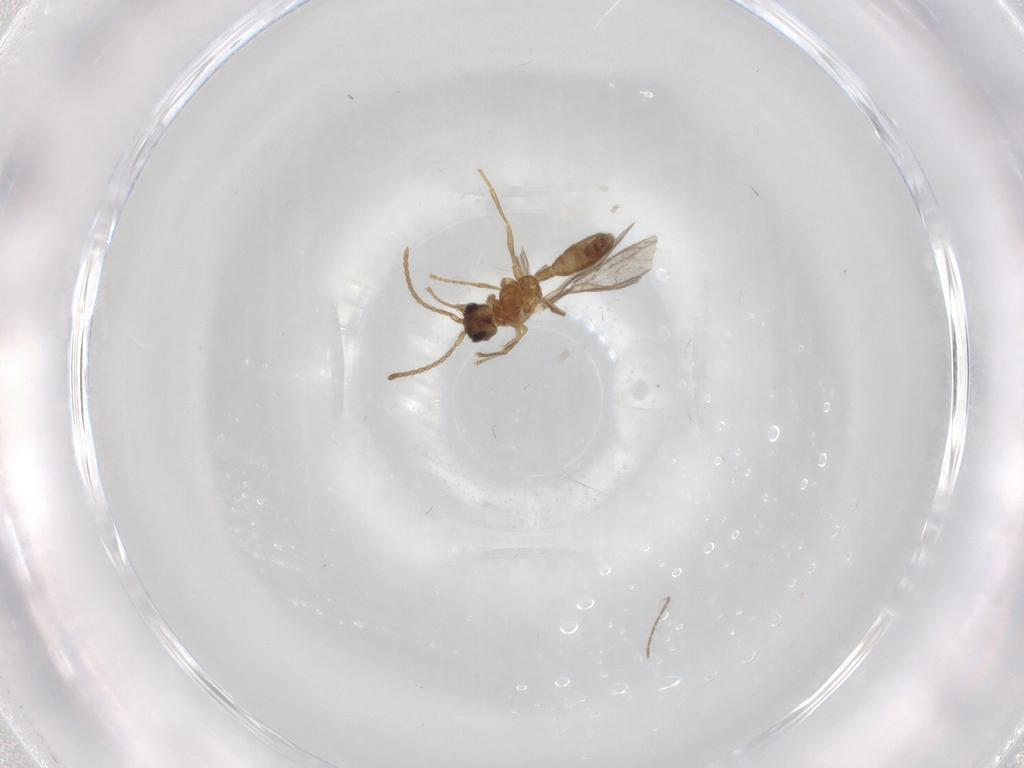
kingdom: Animalia
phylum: Arthropoda
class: Insecta
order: Hymenoptera
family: Formicidae
